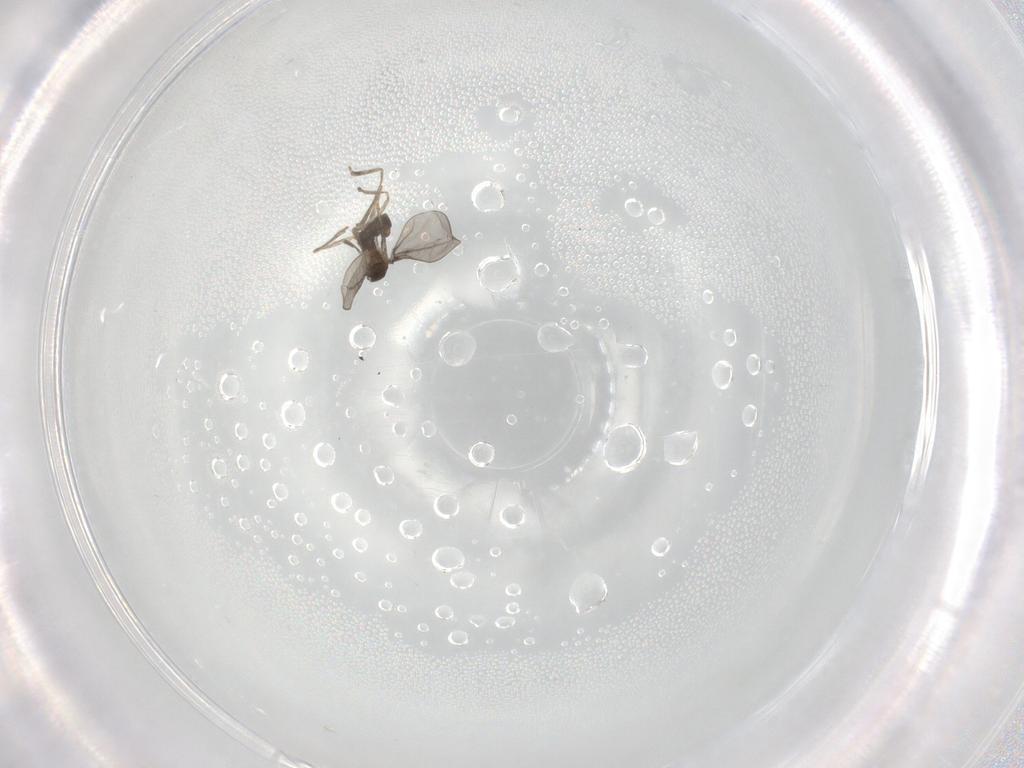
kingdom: Animalia
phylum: Arthropoda
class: Insecta
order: Diptera
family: Cecidomyiidae
